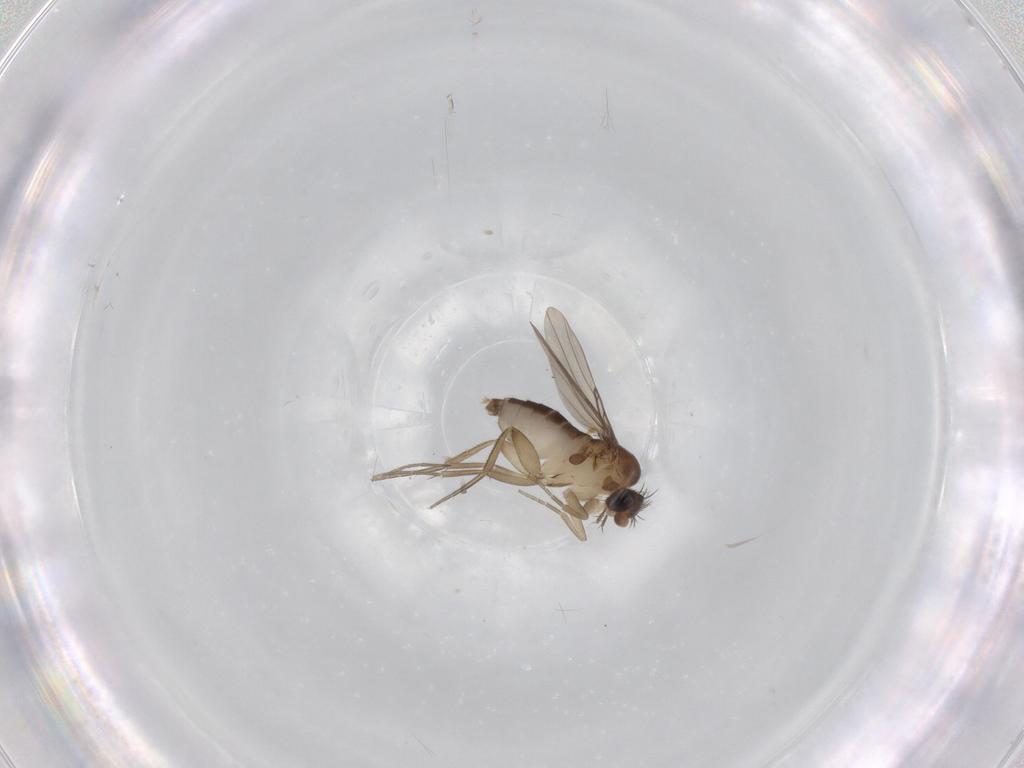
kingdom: Animalia
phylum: Arthropoda
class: Insecta
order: Diptera
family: Phoridae
